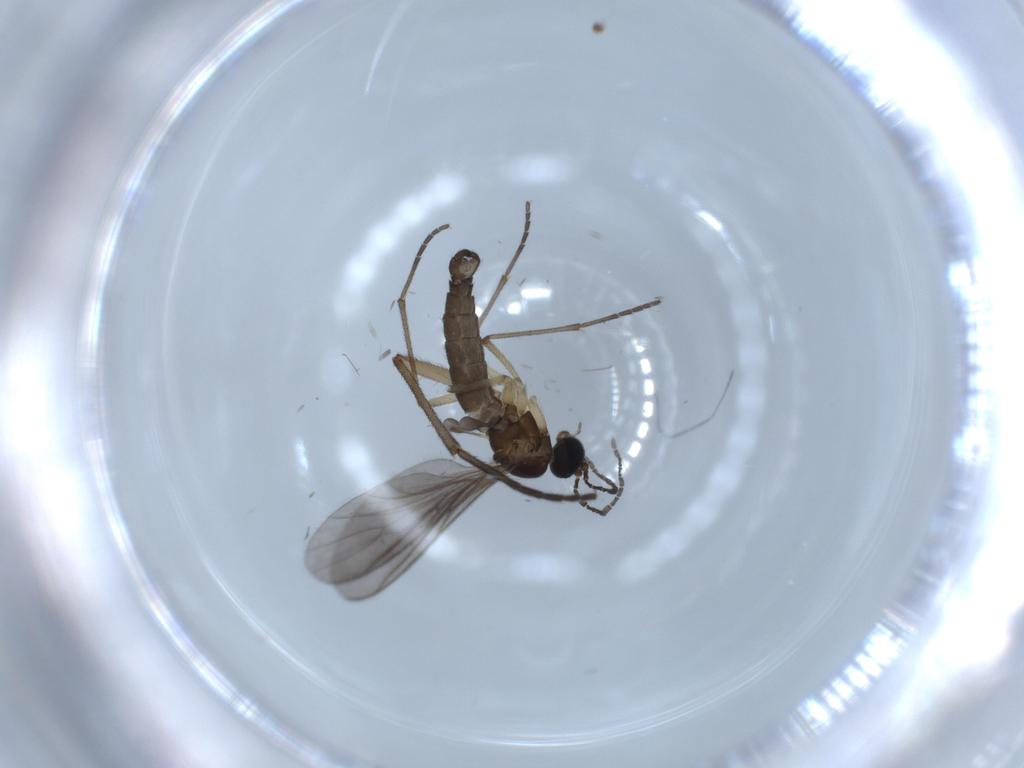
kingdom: Animalia
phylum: Arthropoda
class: Insecta
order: Diptera
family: Sciaridae
